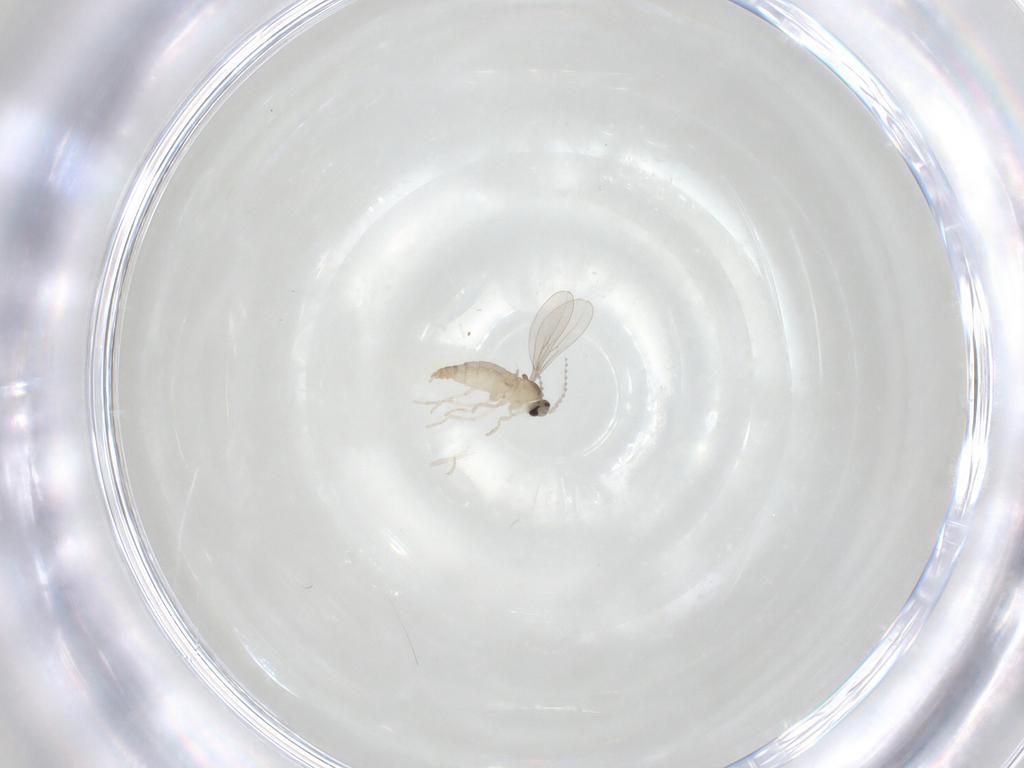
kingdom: Animalia
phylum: Arthropoda
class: Insecta
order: Diptera
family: Cecidomyiidae
